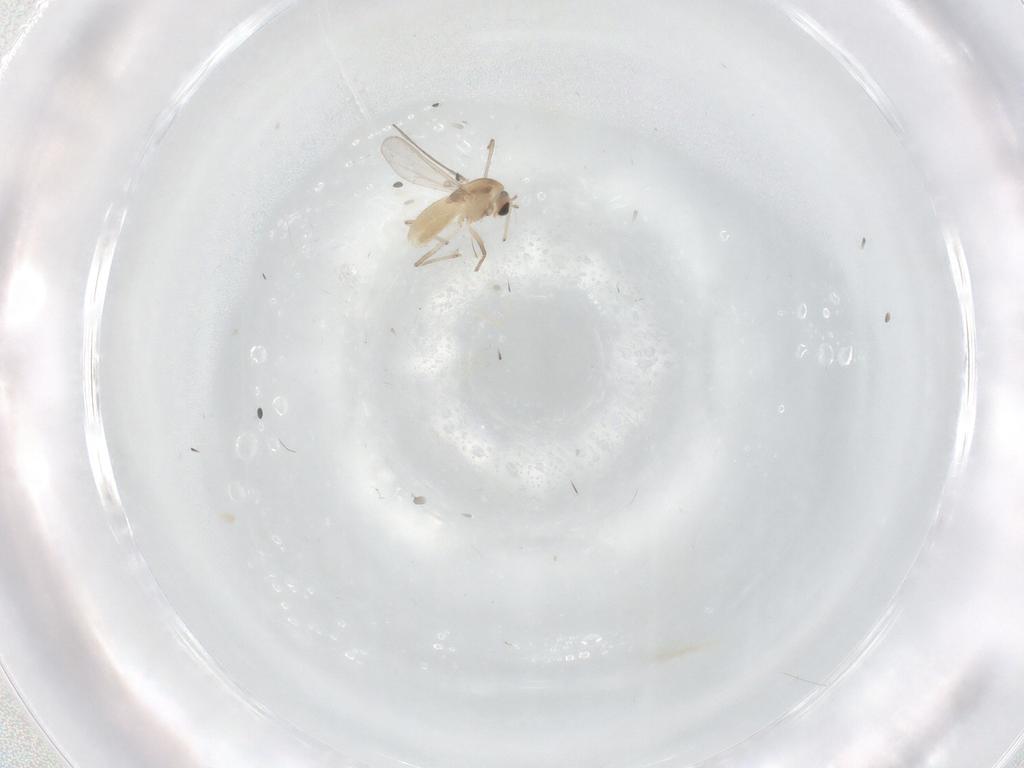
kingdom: Animalia
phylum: Arthropoda
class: Insecta
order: Diptera
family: Chironomidae
